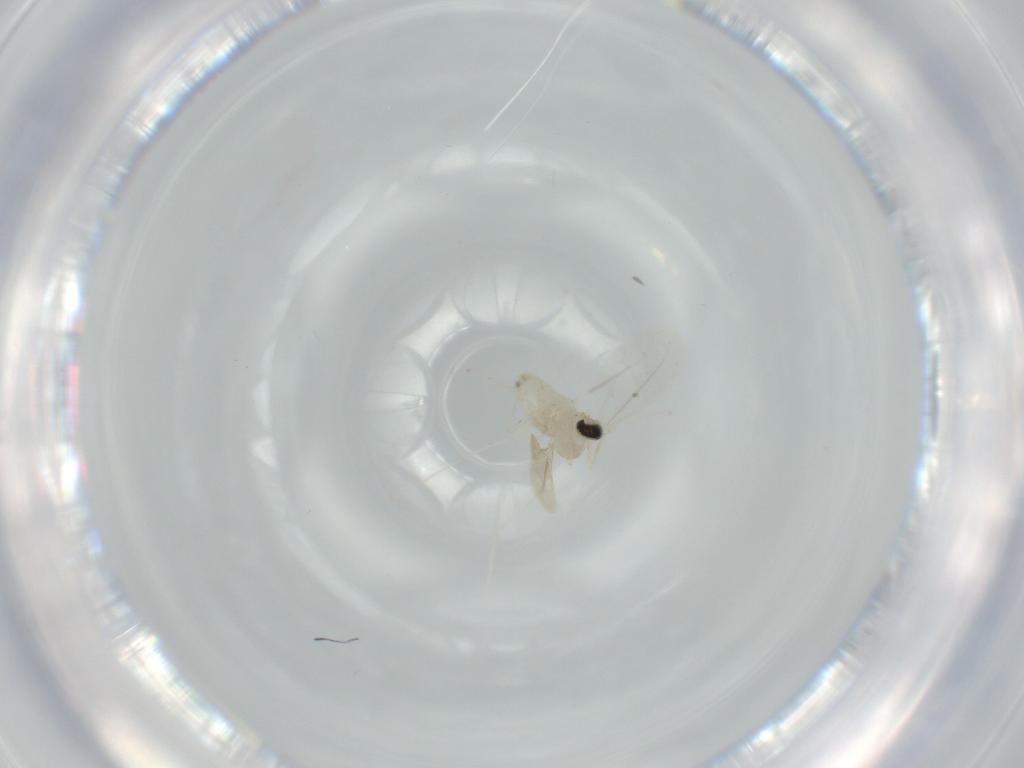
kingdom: Animalia
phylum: Arthropoda
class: Insecta
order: Diptera
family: Cecidomyiidae
